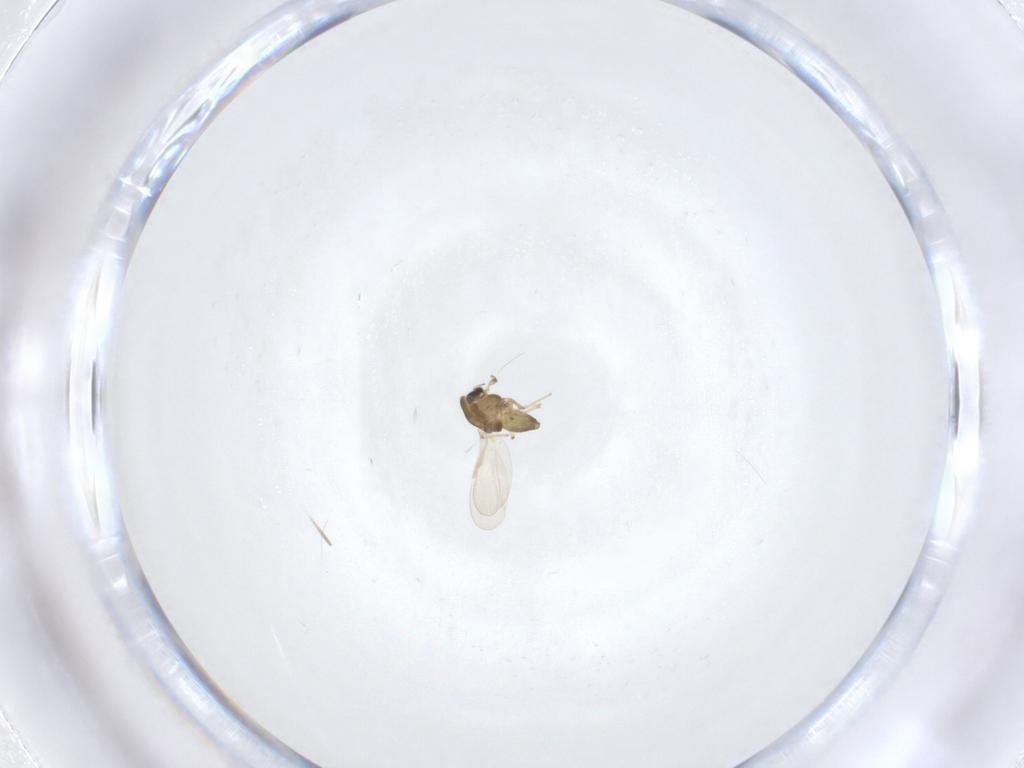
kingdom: Animalia
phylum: Arthropoda
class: Insecta
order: Diptera
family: Chironomidae
